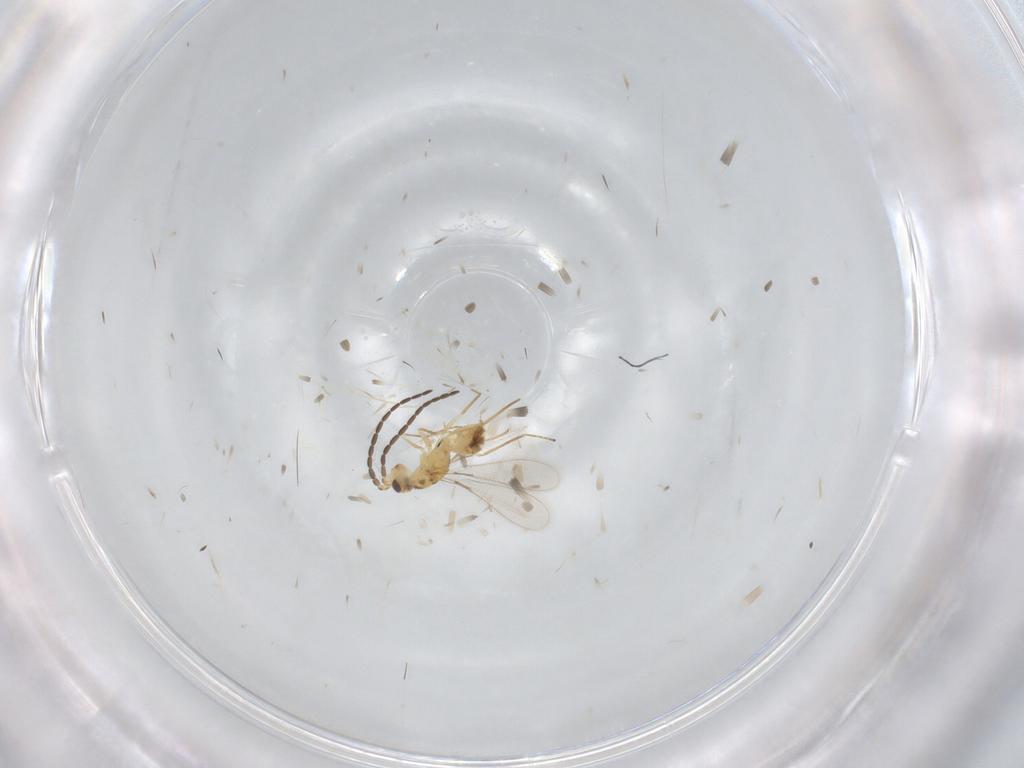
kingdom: Animalia
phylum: Arthropoda
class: Insecta
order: Hymenoptera
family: Mymaridae
